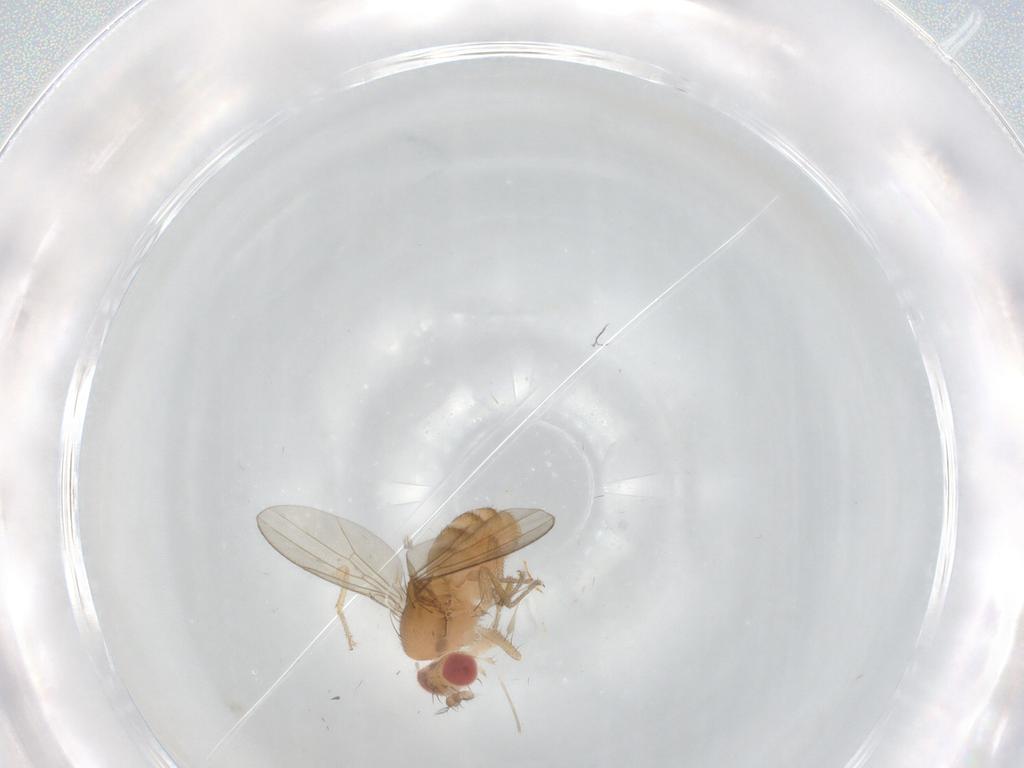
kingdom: Animalia
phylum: Arthropoda
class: Insecta
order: Diptera
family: Drosophilidae
